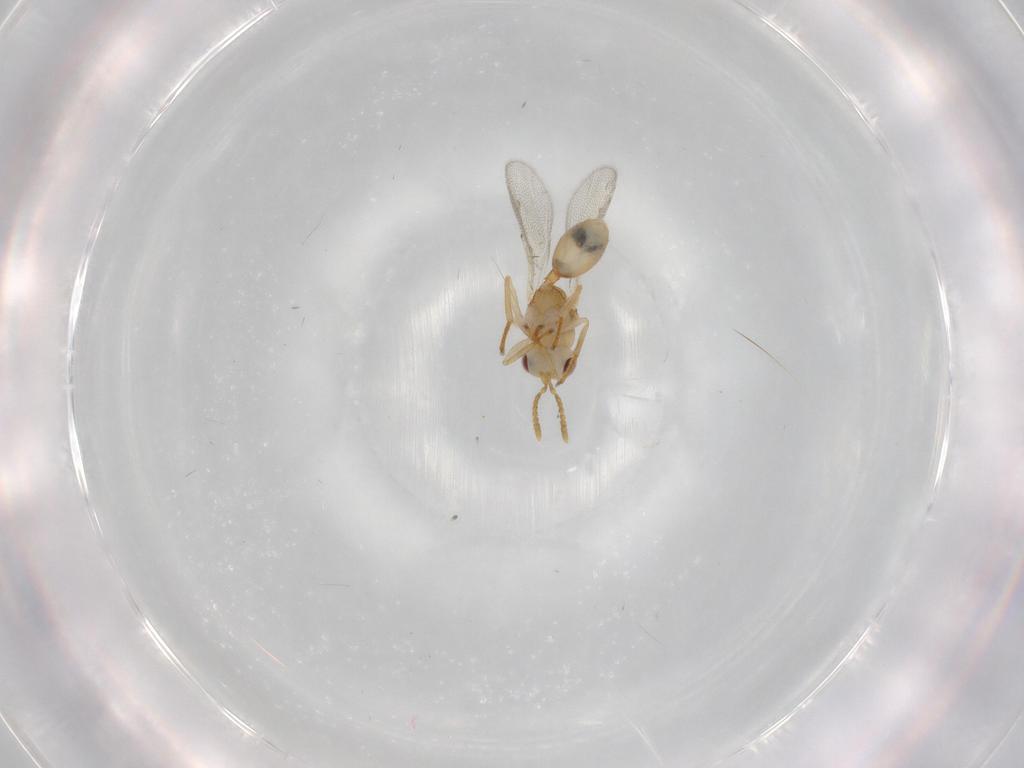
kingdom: Animalia
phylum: Arthropoda
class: Insecta
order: Hymenoptera
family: Eurytomidae
